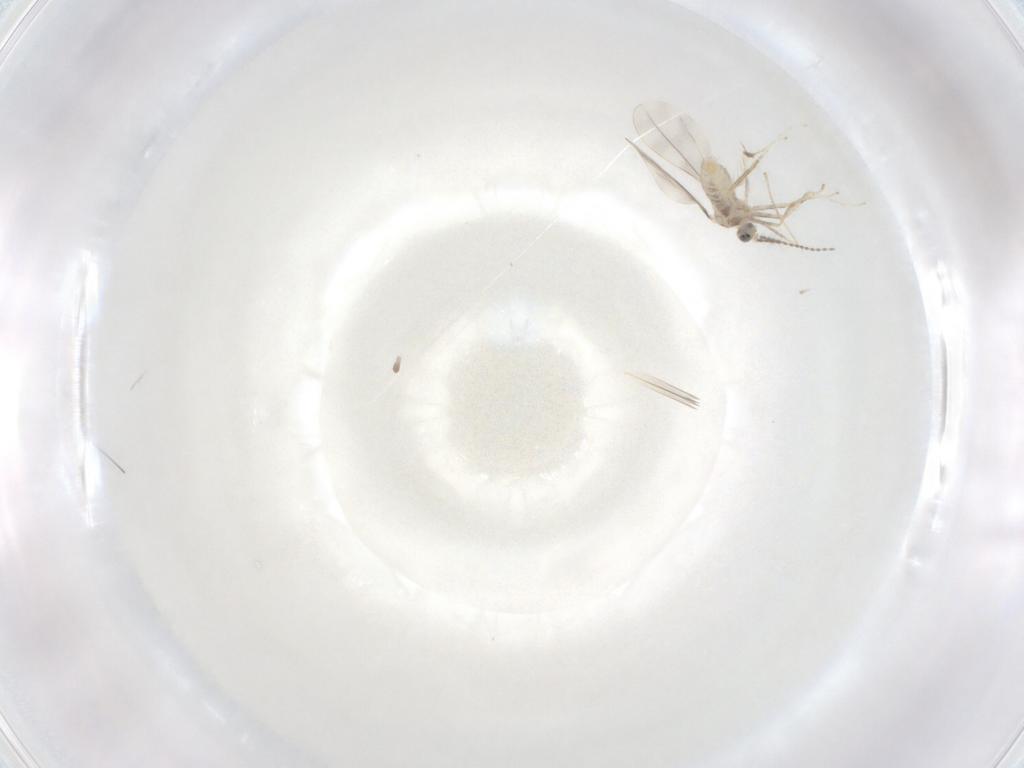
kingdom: Animalia
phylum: Arthropoda
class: Insecta
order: Diptera
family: Cecidomyiidae
